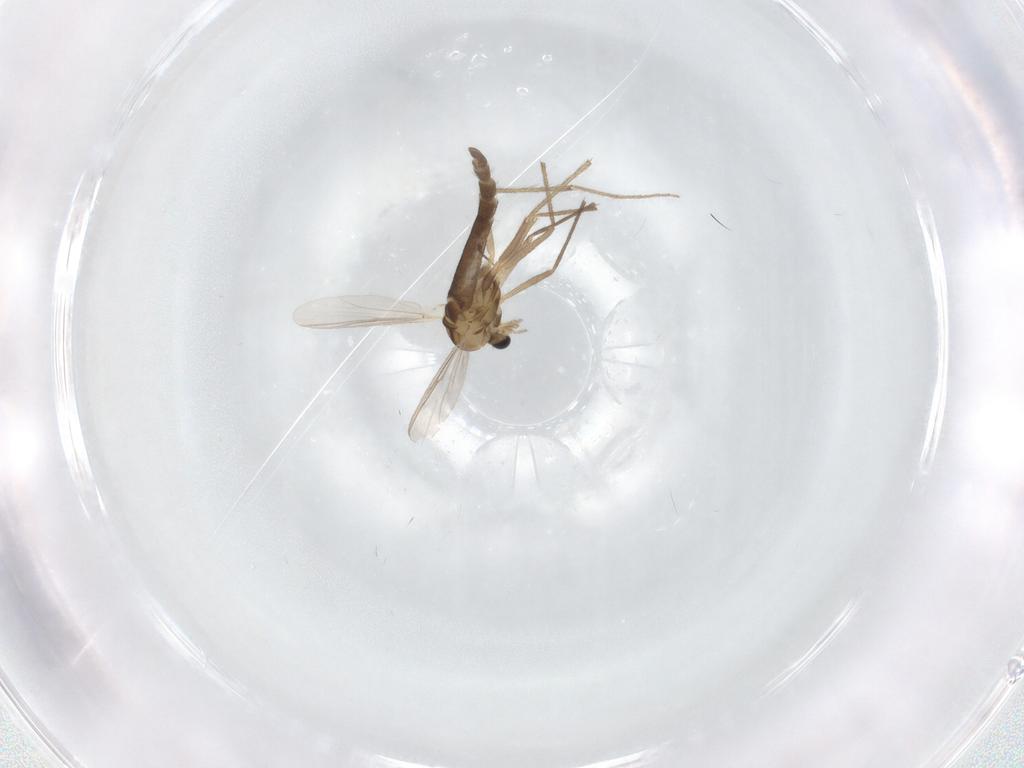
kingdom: Animalia
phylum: Arthropoda
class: Insecta
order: Diptera
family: Chironomidae
